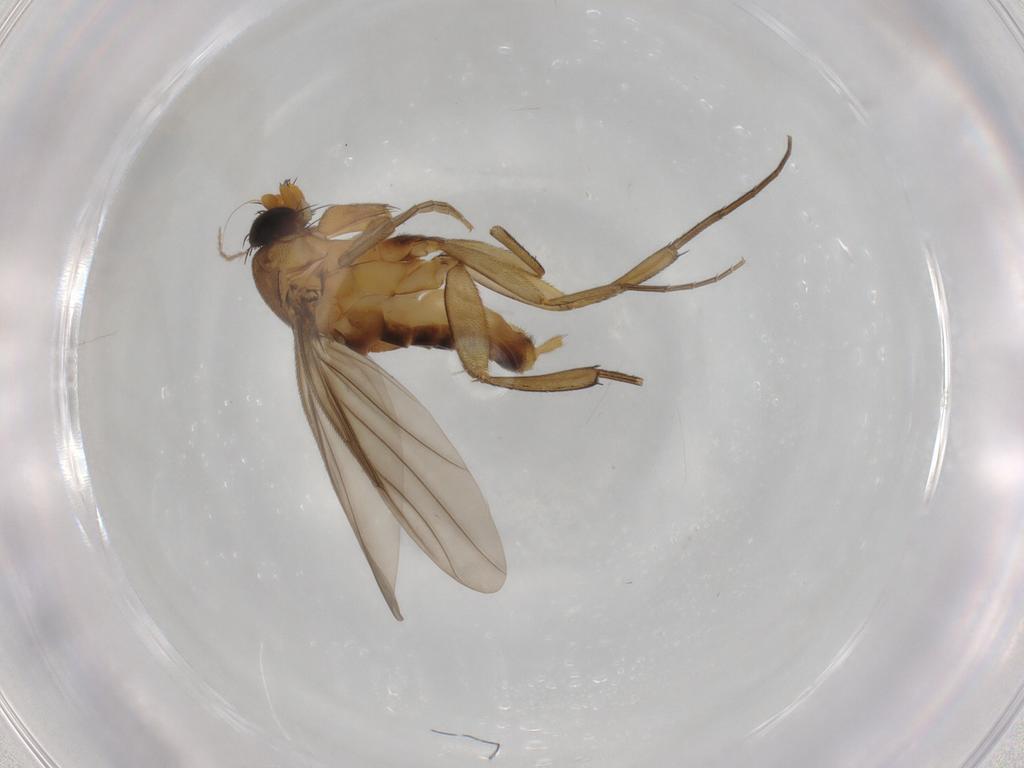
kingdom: Animalia
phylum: Arthropoda
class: Insecta
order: Diptera
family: Chironomidae
